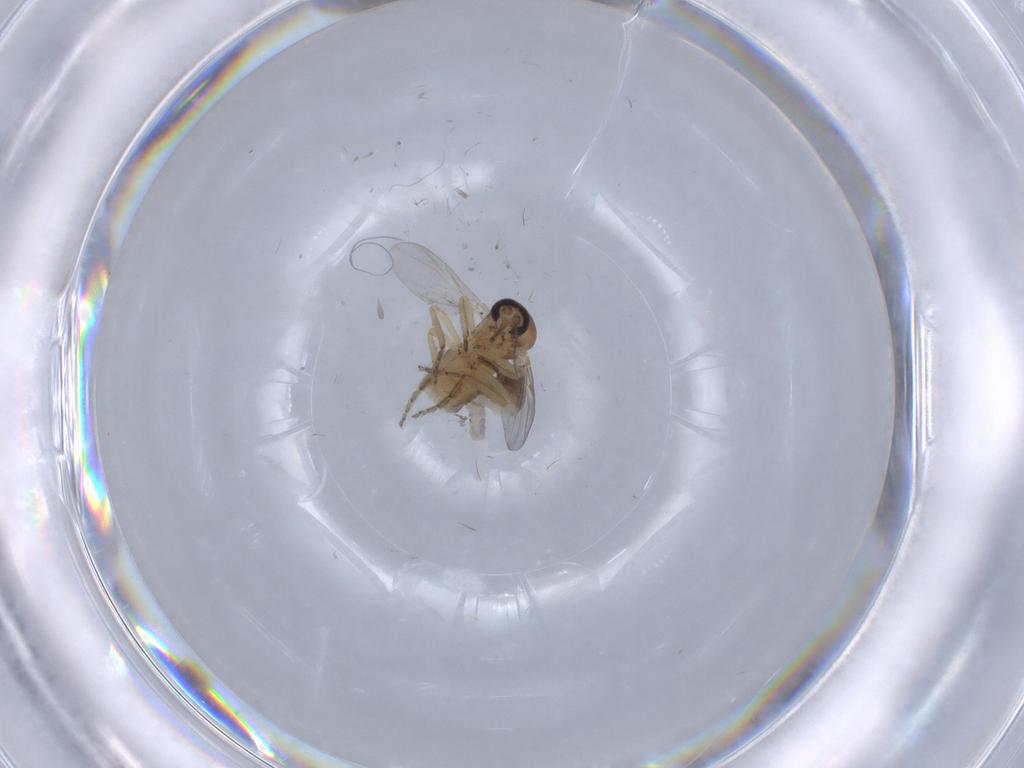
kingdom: Animalia
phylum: Arthropoda
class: Insecta
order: Diptera
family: Ceratopogonidae
